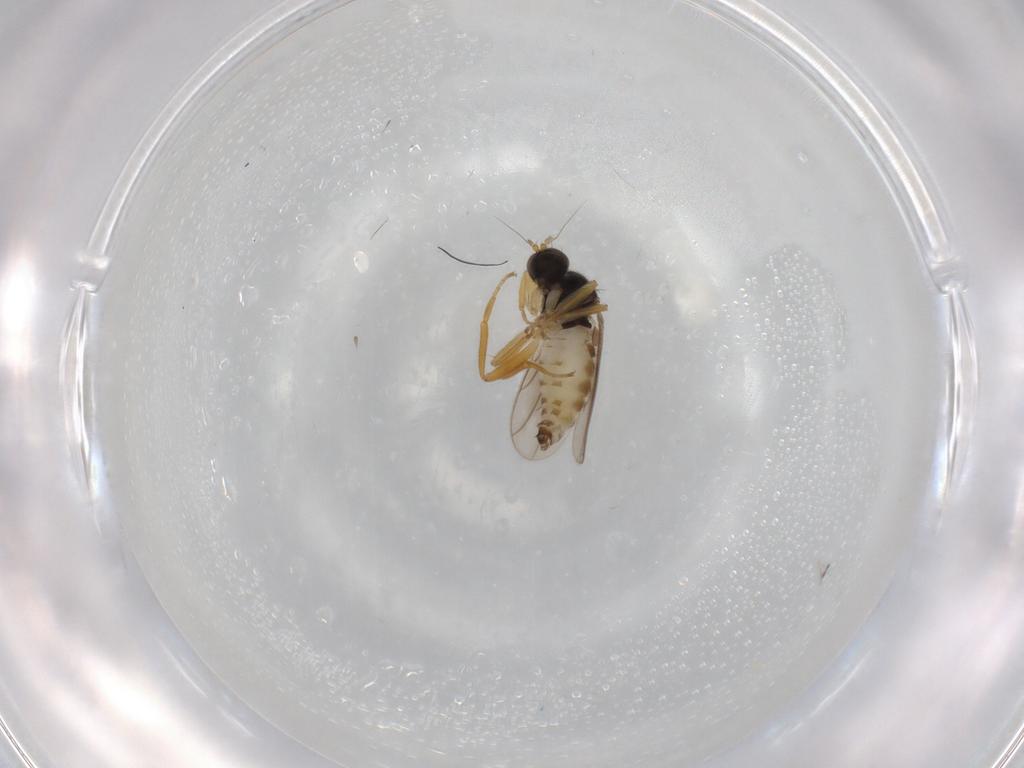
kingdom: Animalia
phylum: Arthropoda
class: Insecta
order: Diptera
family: Hybotidae
